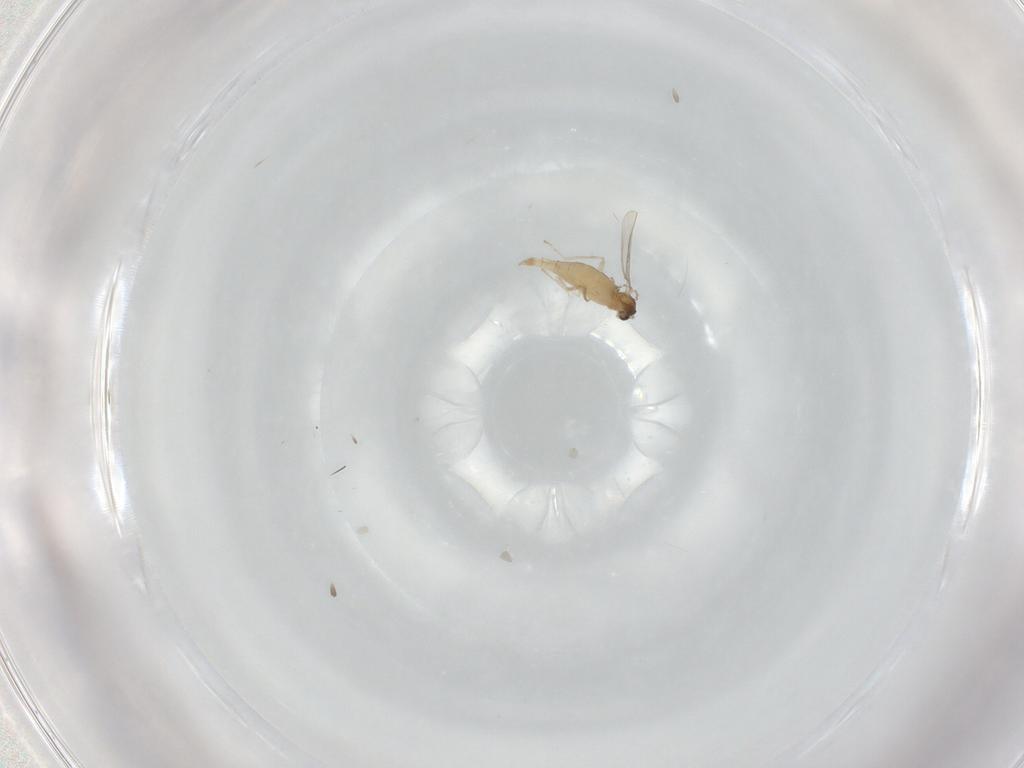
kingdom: Animalia
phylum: Arthropoda
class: Insecta
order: Diptera
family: Cecidomyiidae
